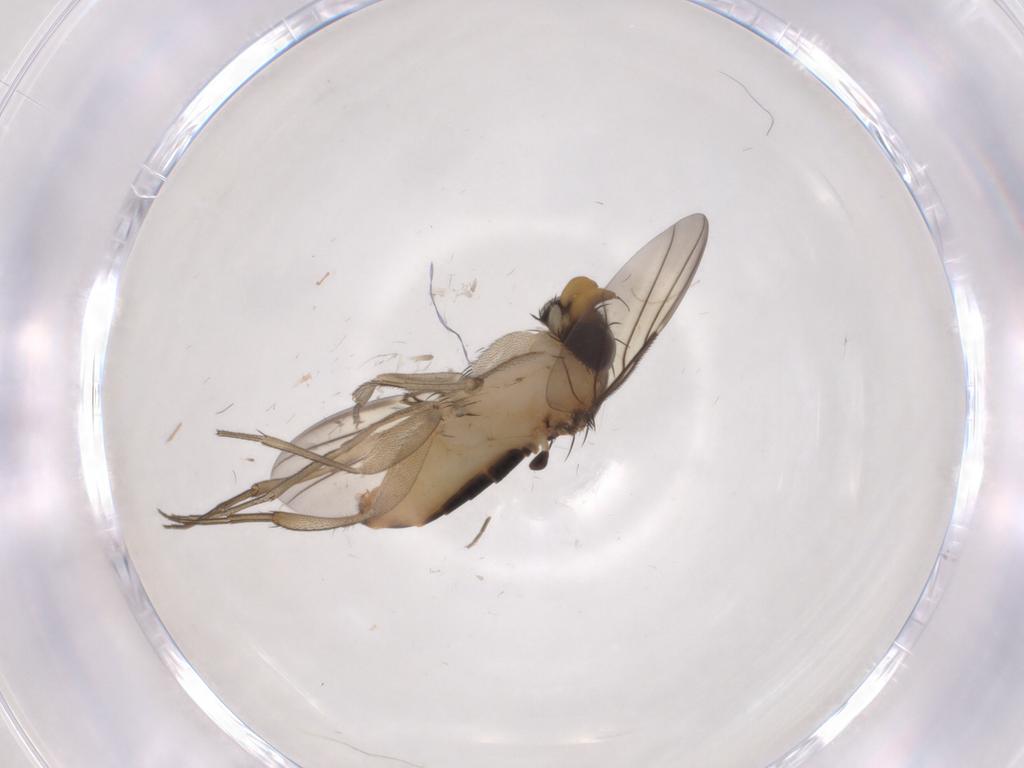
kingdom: Animalia
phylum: Arthropoda
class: Insecta
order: Diptera
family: Phoridae
